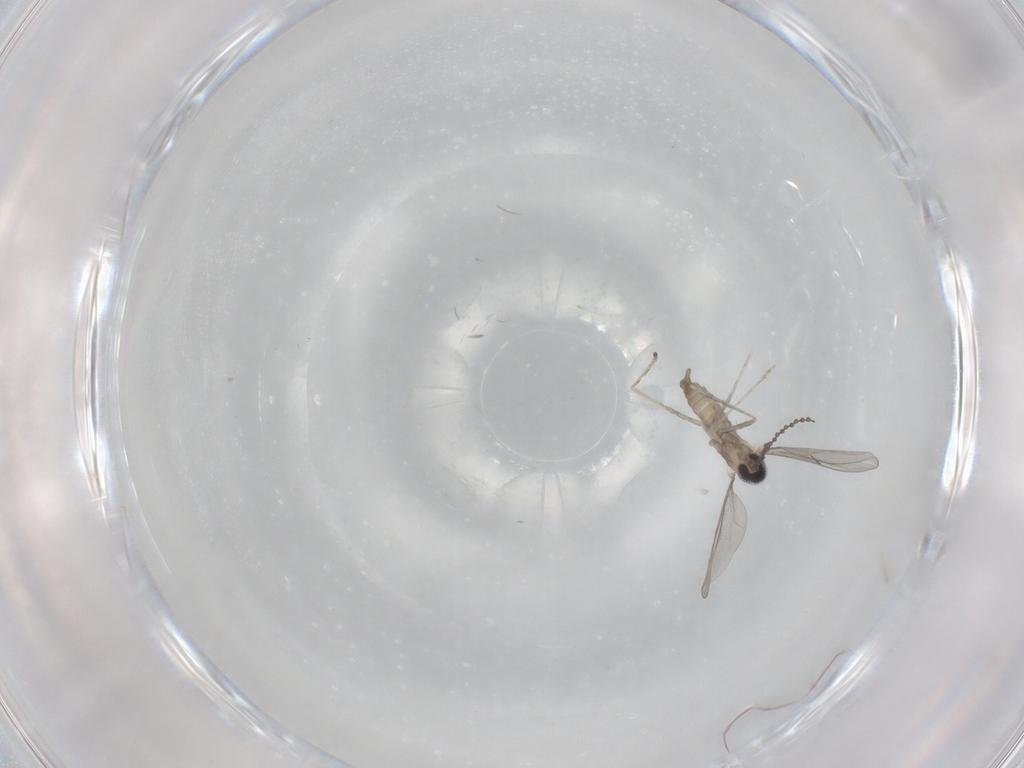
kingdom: Animalia
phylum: Arthropoda
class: Insecta
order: Diptera
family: Cecidomyiidae
